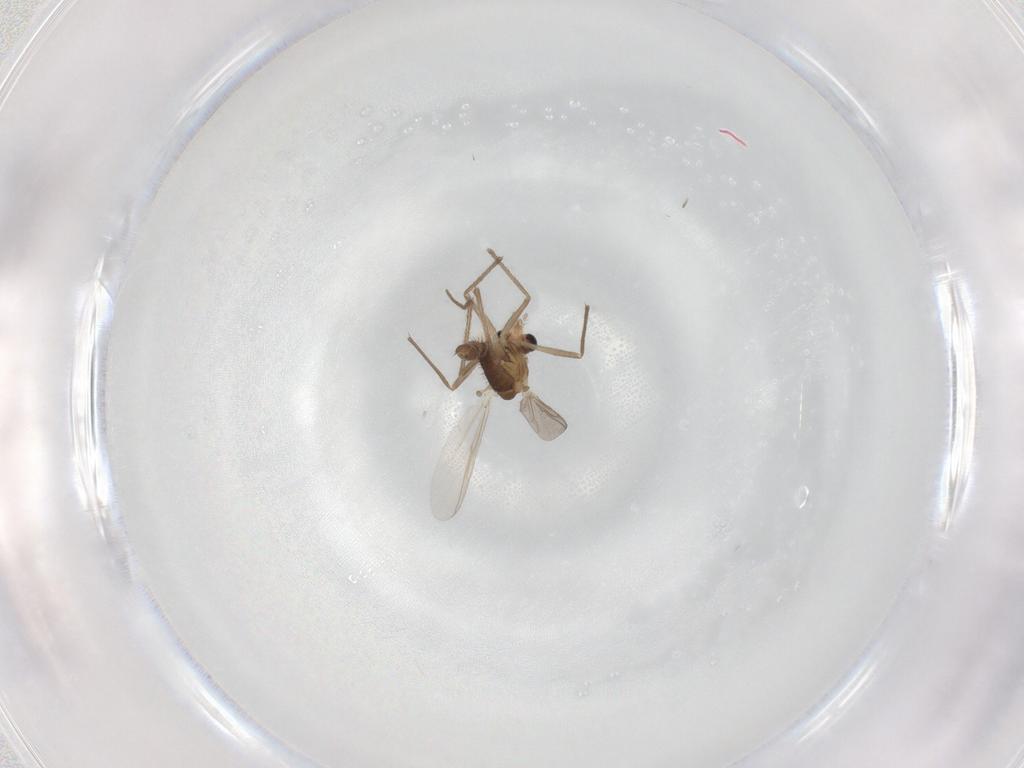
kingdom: Animalia
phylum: Arthropoda
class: Insecta
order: Diptera
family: Chironomidae
